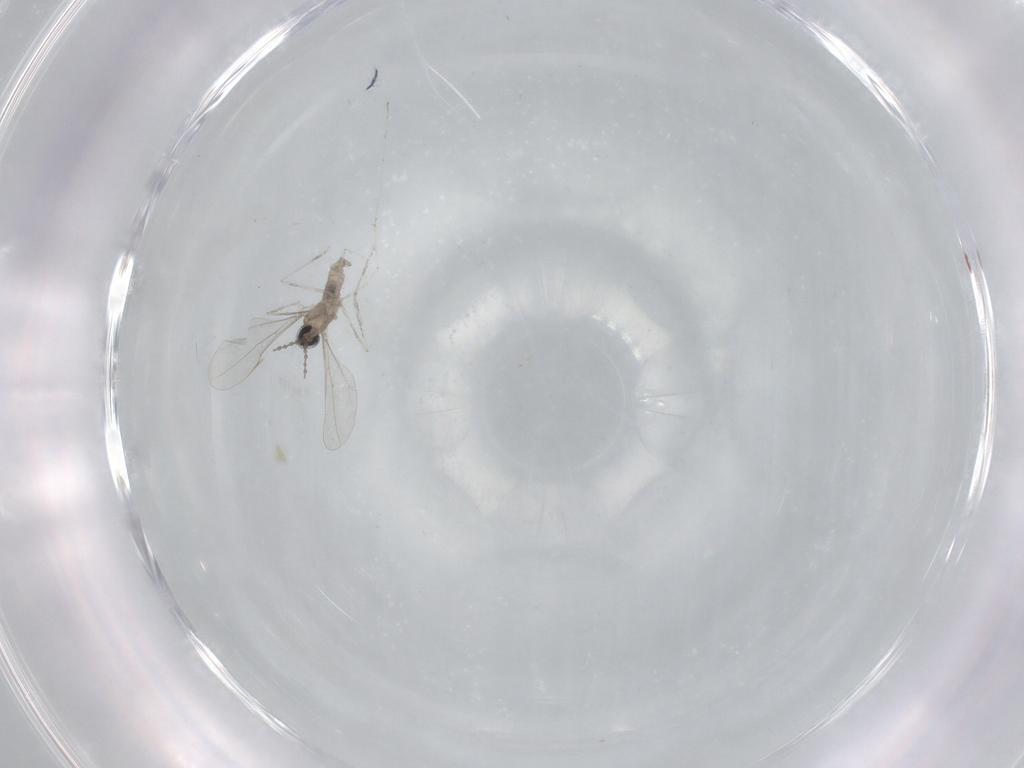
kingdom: Animalia
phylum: Arthropoda
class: Insecta
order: Diptera
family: Cecidomyiidae
